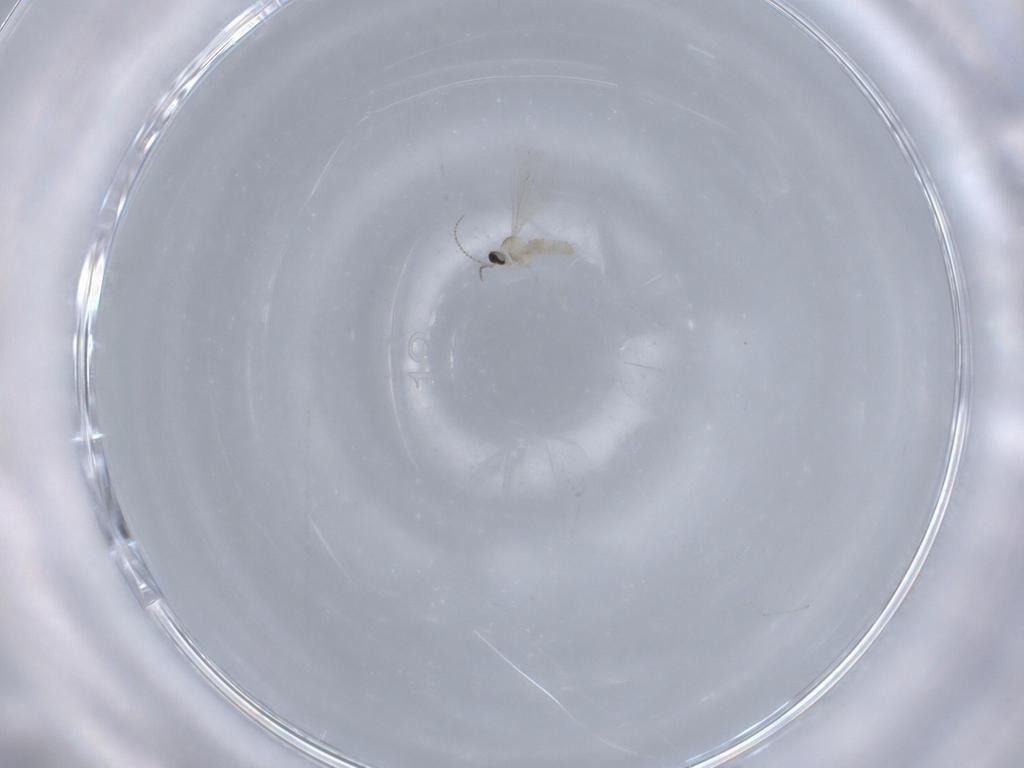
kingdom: Animalia
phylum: Arthropoda
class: Insecta
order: Diptera
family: Cecidomyiidae
